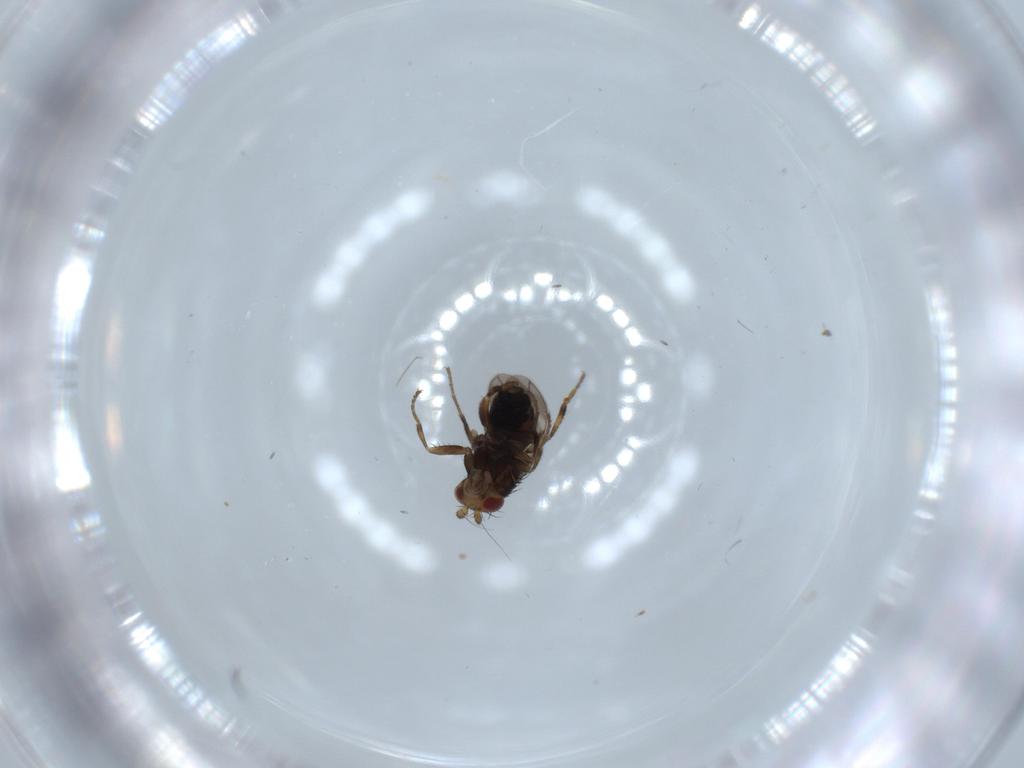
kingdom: Animalia
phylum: Arthropoda
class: Insecta
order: Diptera
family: Sphaeroceridae
